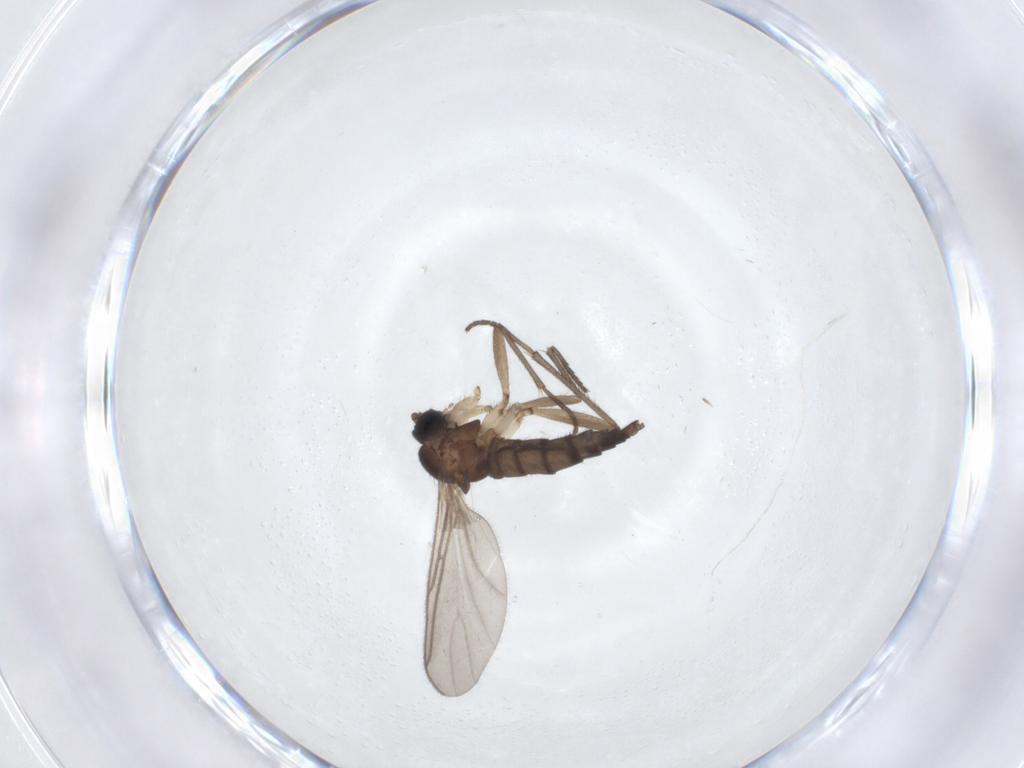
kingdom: Animalia
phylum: Arthropoda
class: Insecta
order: Diptera
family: Sciaridae
